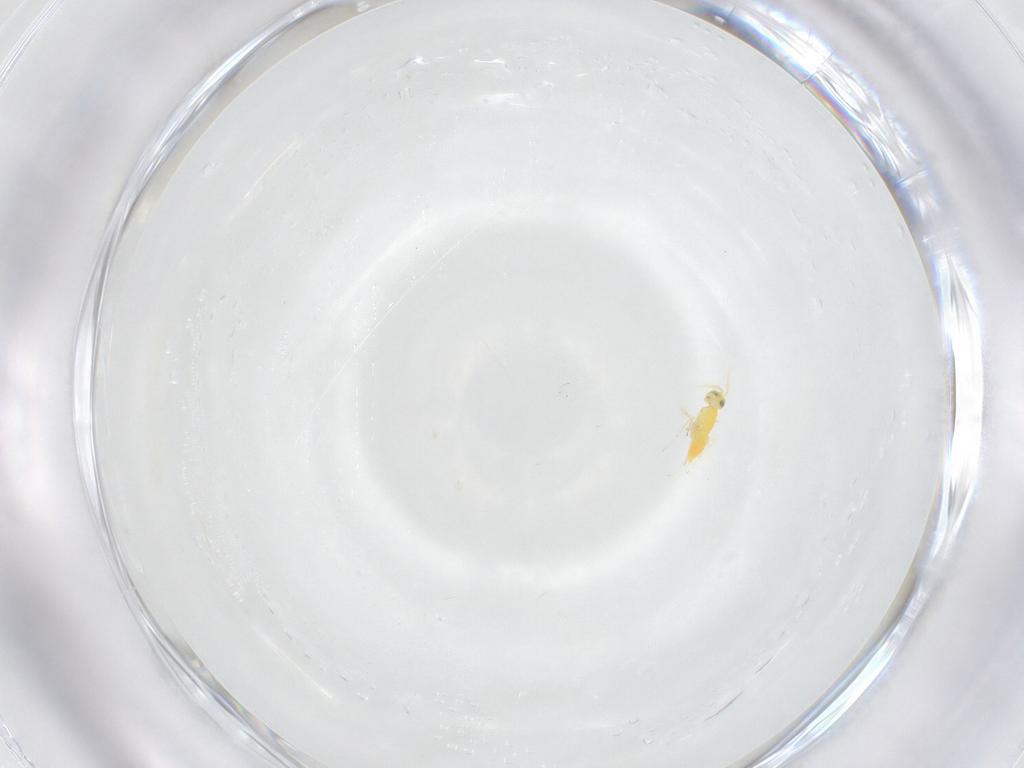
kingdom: Animalia
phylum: Arthropoda
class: Insecta
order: Hymenoptera
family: Aphelinidae
